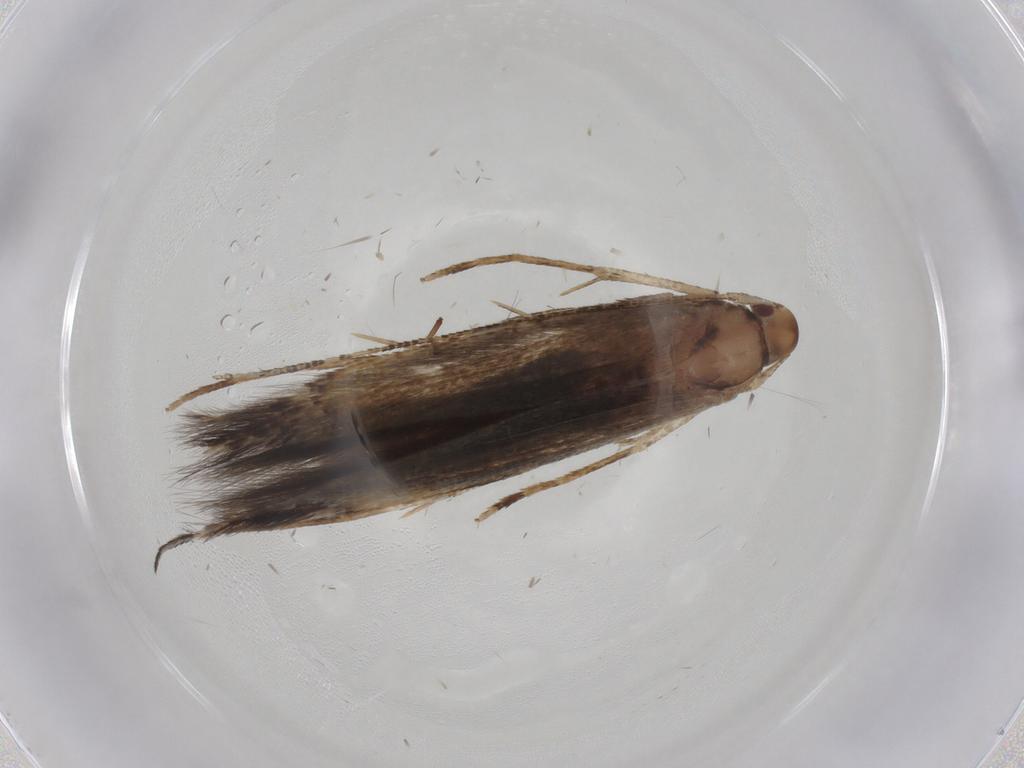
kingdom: Animalia
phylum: Arthropoda
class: Insecta
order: Lepidoptera
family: Cosmopterigidae
